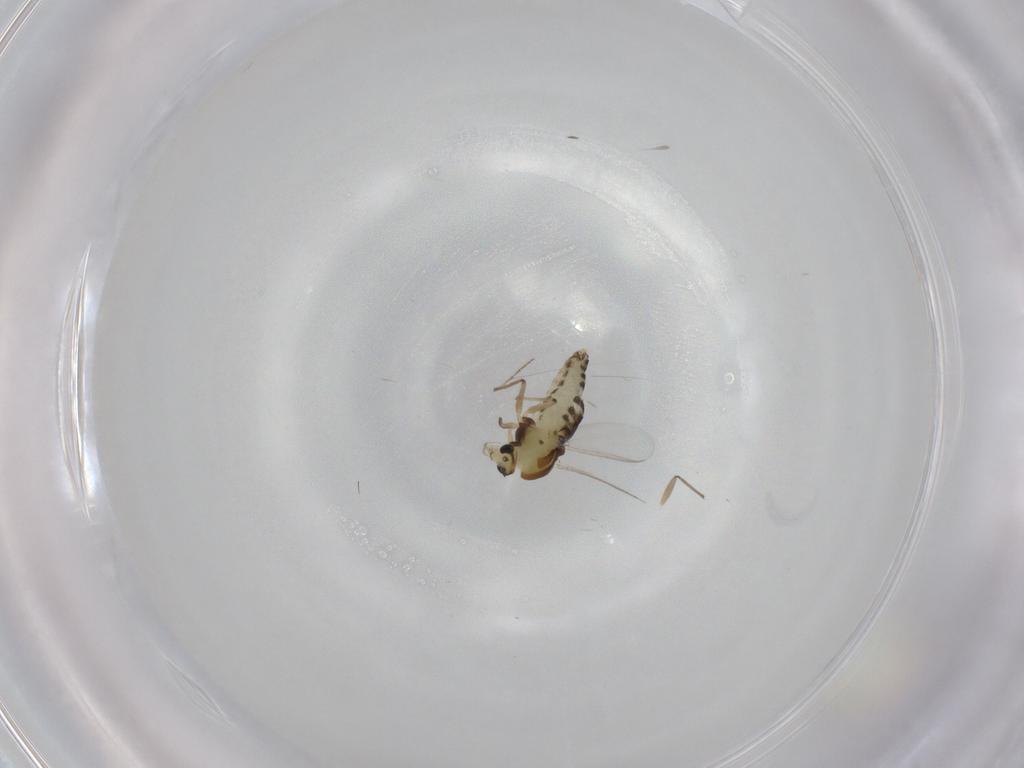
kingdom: Animalia
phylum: Arthropoda
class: Insecta
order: Diptera
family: Chironomidae
